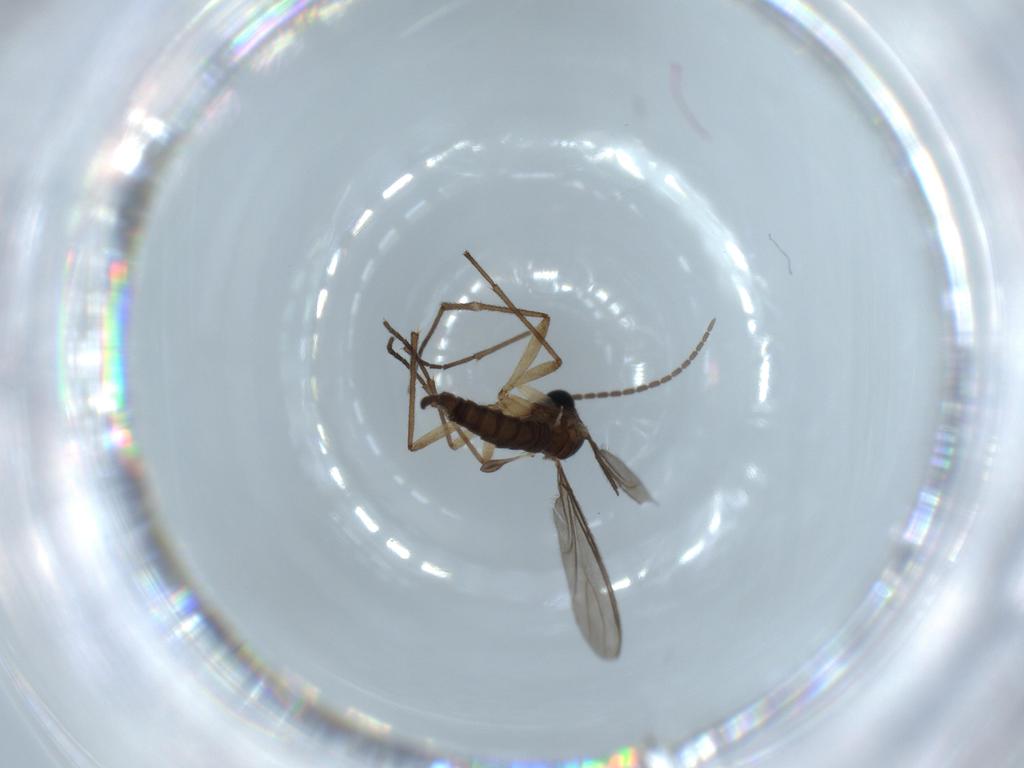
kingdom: Animalia
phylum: Arthropoda
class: Insecta
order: Diptera
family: Sciaridae
